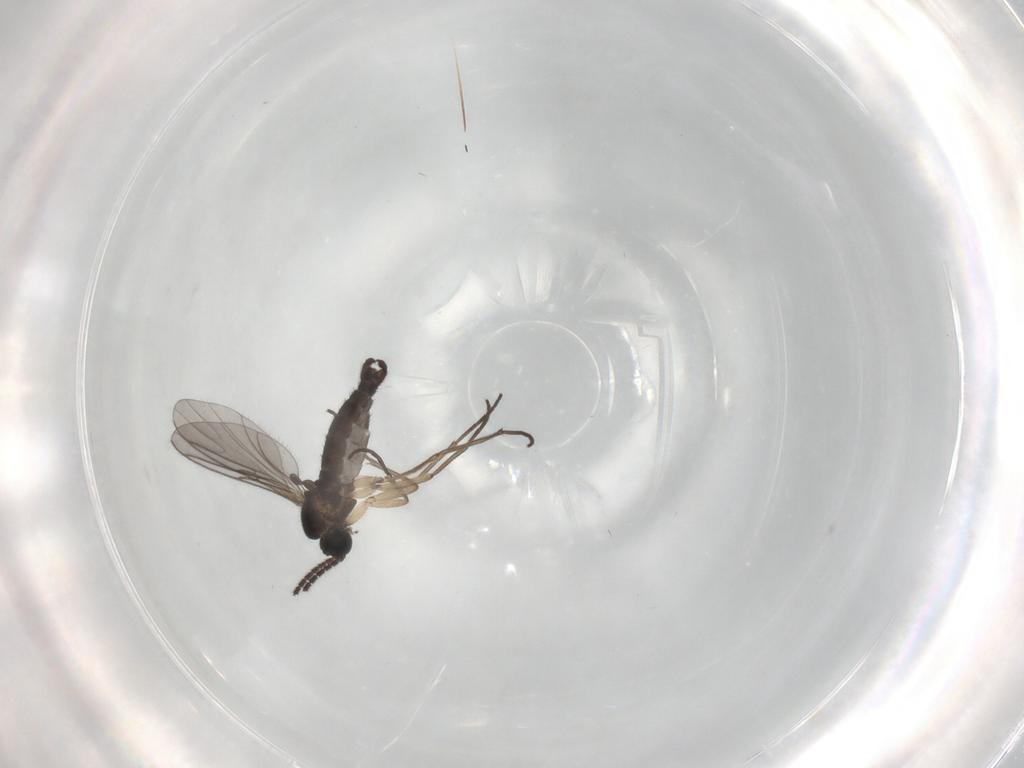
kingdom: Animalia
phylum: Arthropoda
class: Insecta
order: Diptera
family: Sciaridae
